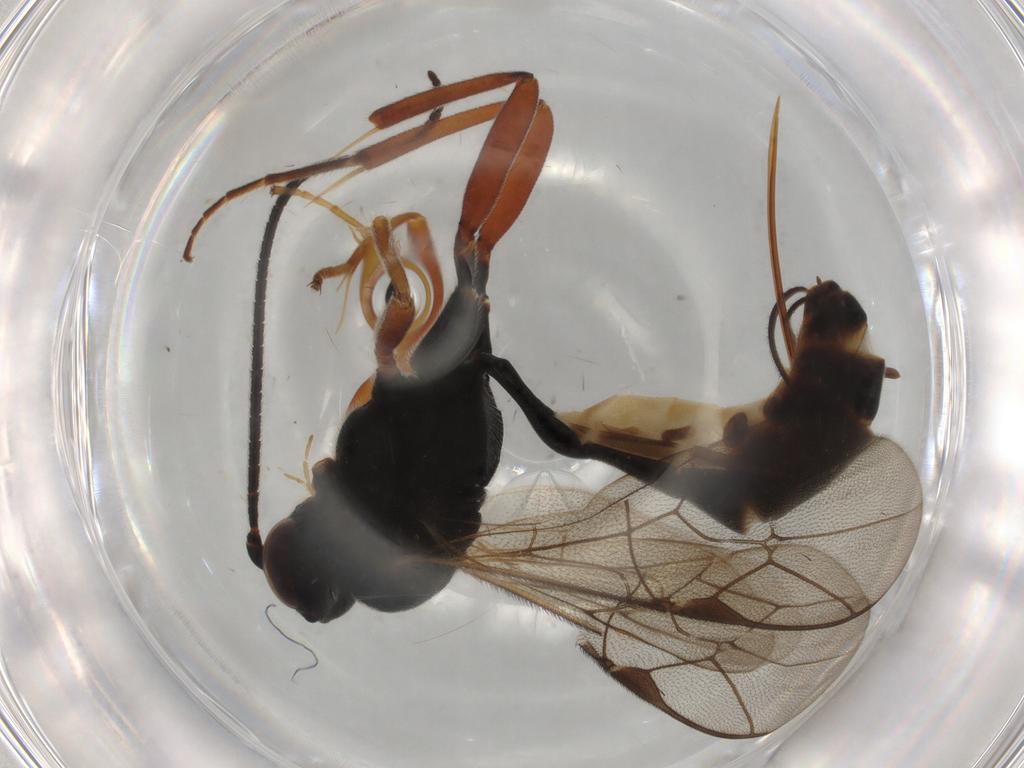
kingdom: Animalia
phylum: Arthropoda
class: Insecta
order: Hymenoptera
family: Ichneumonidae
